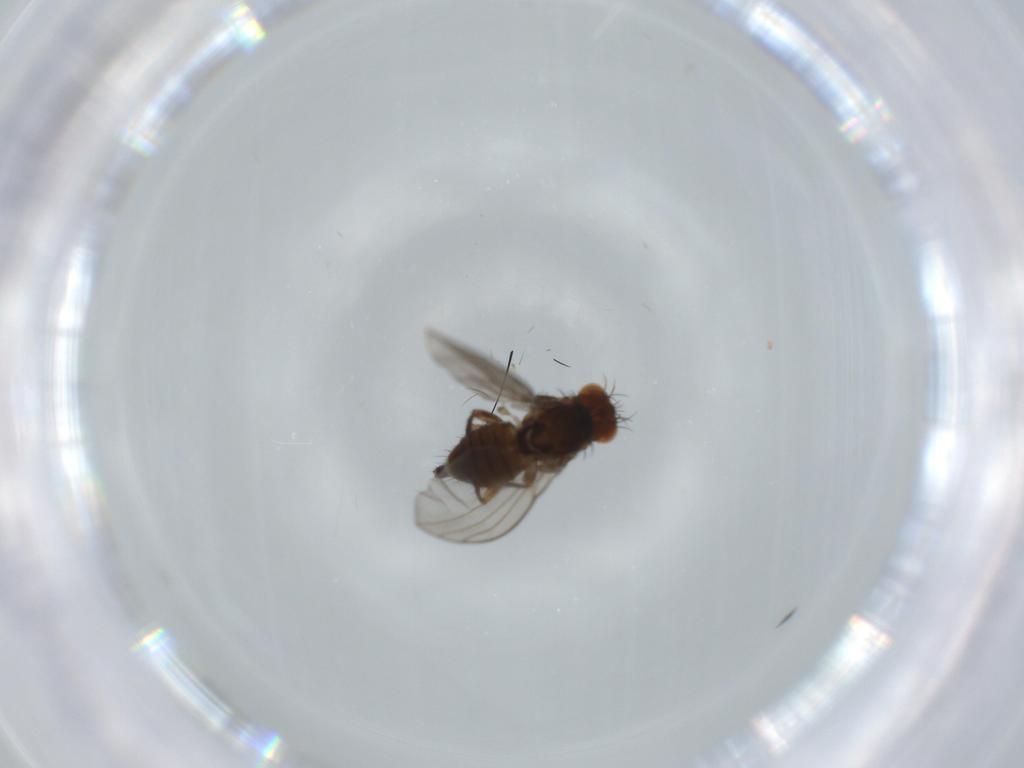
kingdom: Animalia
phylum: Arthropoda
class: Insecta
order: Diptera
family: Agromyzidae
